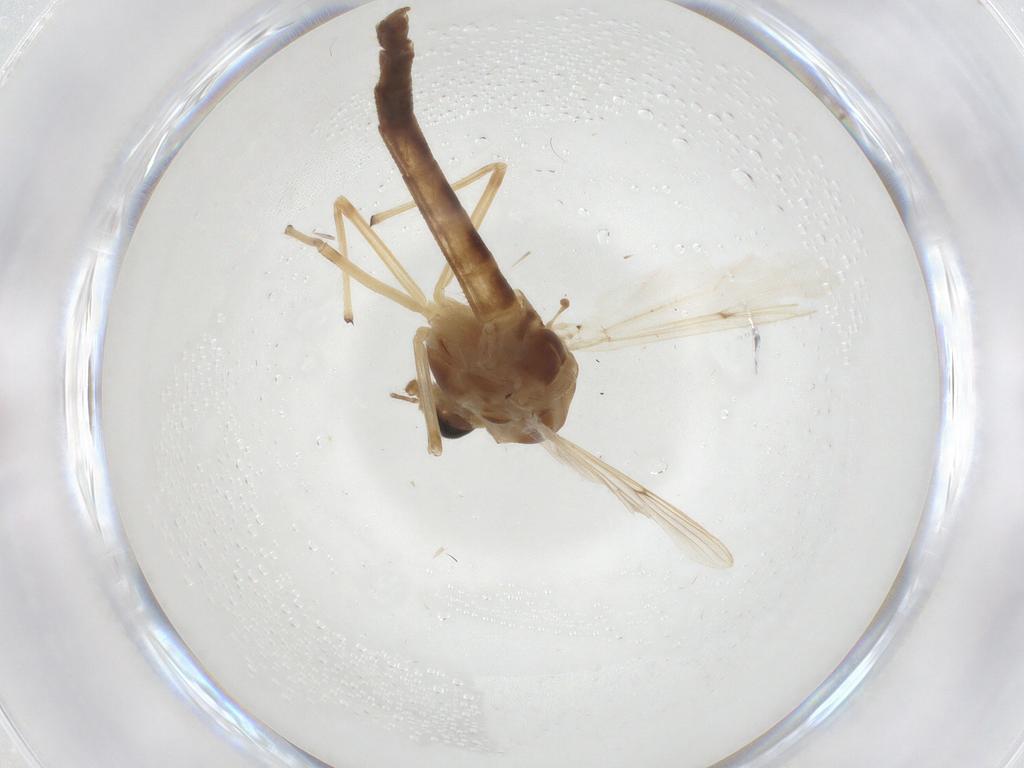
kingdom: Animalia
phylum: Arthropoda
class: Insecta
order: Diptera
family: Chironomidae
